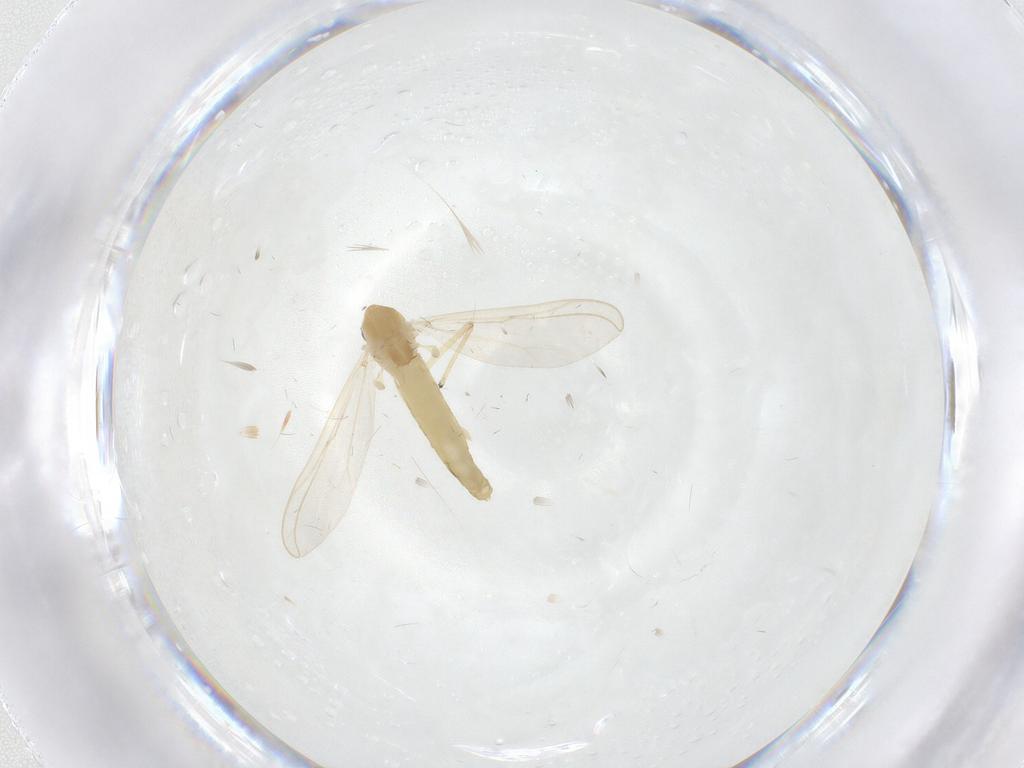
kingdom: Animalia
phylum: Arthropoda
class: Insecta
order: Diptera
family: Chironomidae
